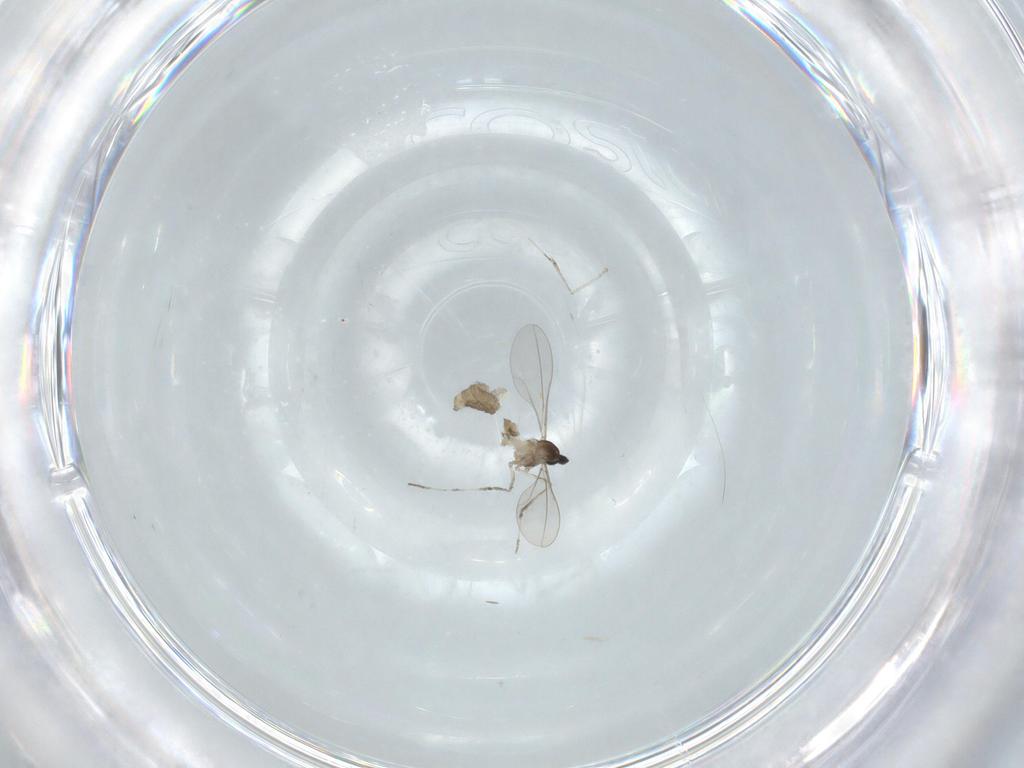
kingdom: Animalia
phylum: Arthropoda
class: Insecta
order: Diptera
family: Cecidomyiidae
